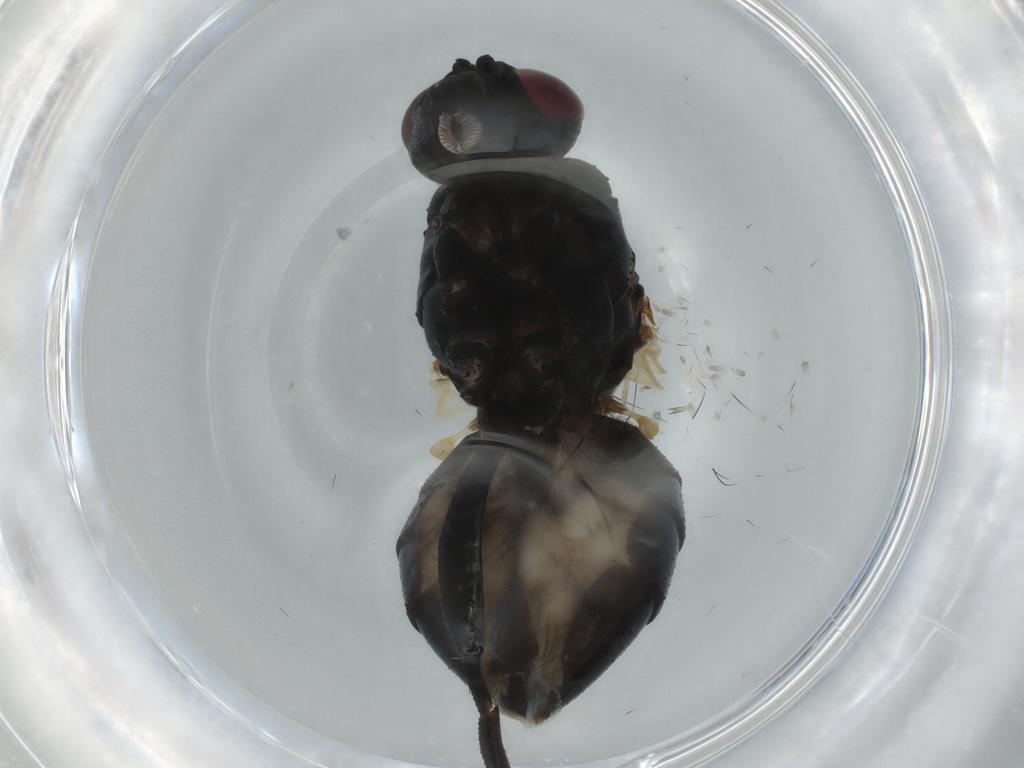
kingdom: Animalia
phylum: Arthropoda
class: Insecta
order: Diptera
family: Muscidae
